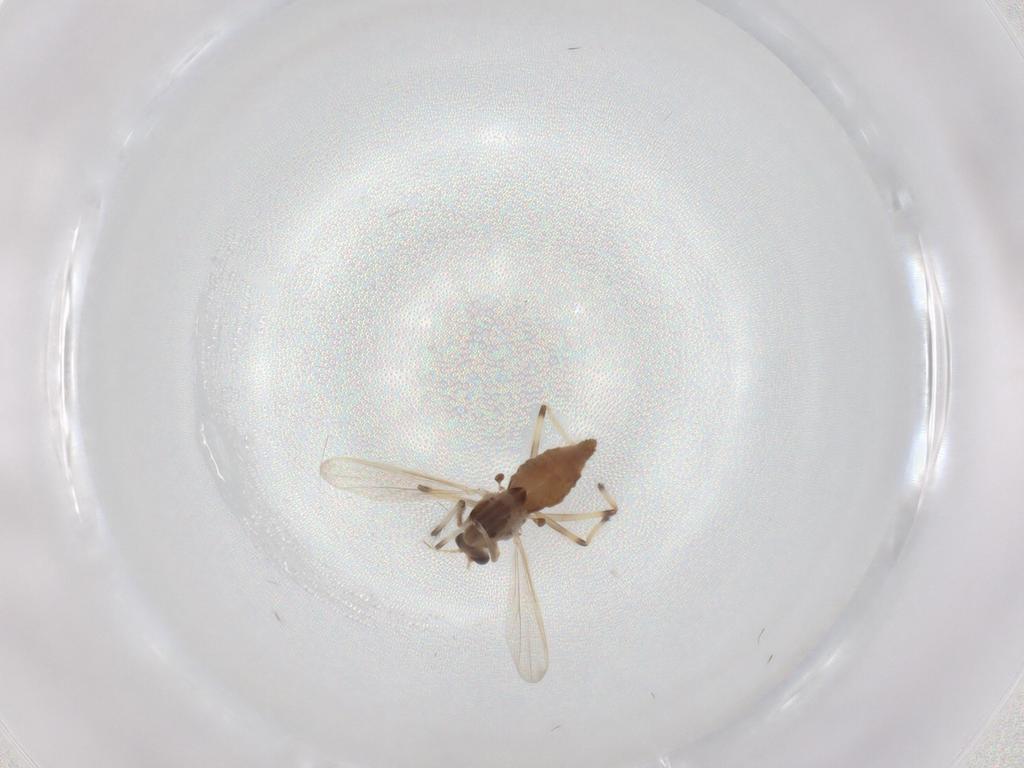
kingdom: Animalia
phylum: Arthropoda
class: Insecta
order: Diptera
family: Chironomidae
